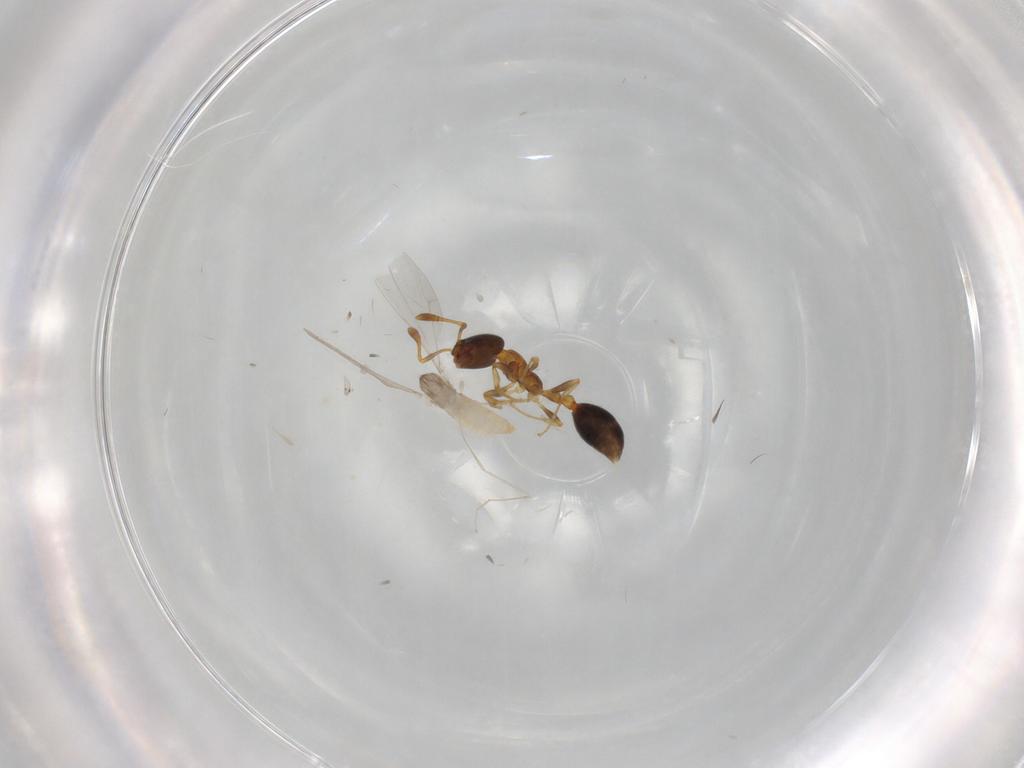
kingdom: Animalia
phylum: Arthropoda
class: Insecta
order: Hymenoptera
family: Formicidae
